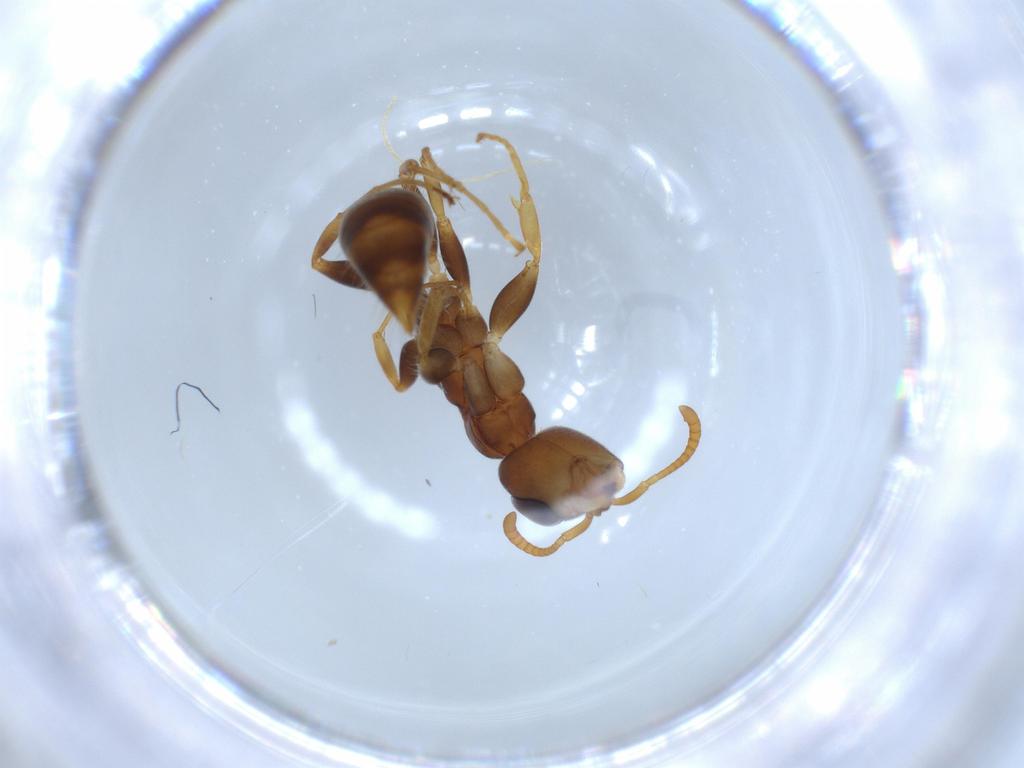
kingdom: Animalia
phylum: Arthropoda
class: Insecta
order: Hymenoptera
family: Formicidae
